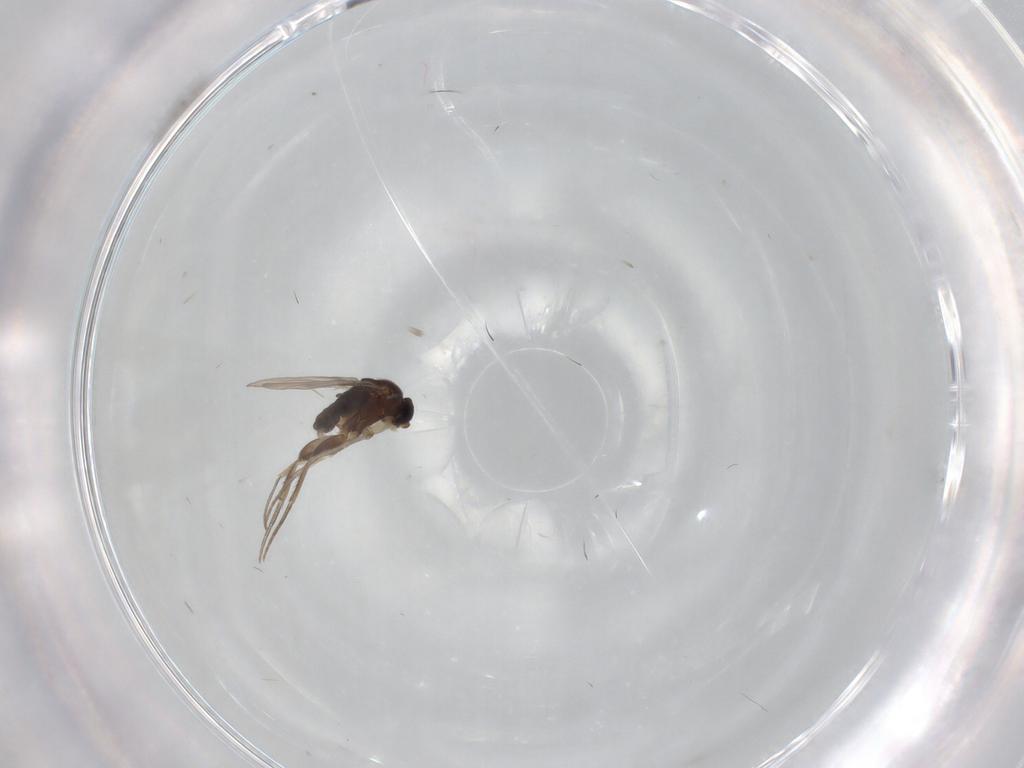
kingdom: Animalia
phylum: Arthropoda
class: Insecta
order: Diptera
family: Ceratopogonidae
